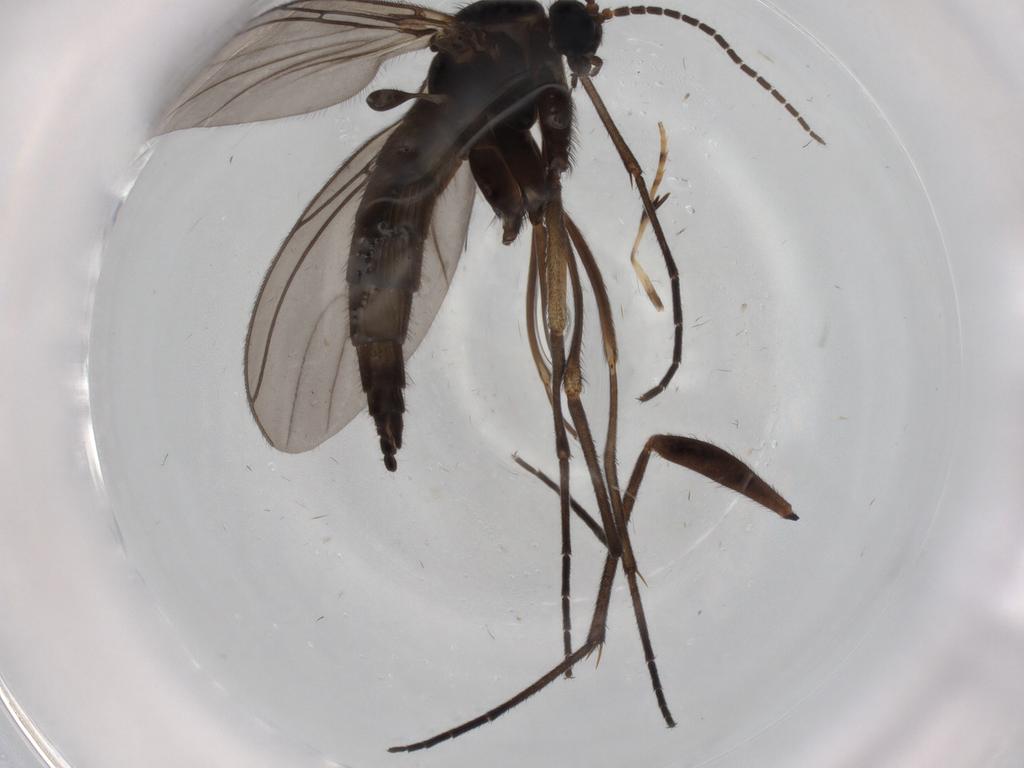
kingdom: Animalia
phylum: Arthropoda
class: Insecta
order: Diptera
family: Sciaridae
